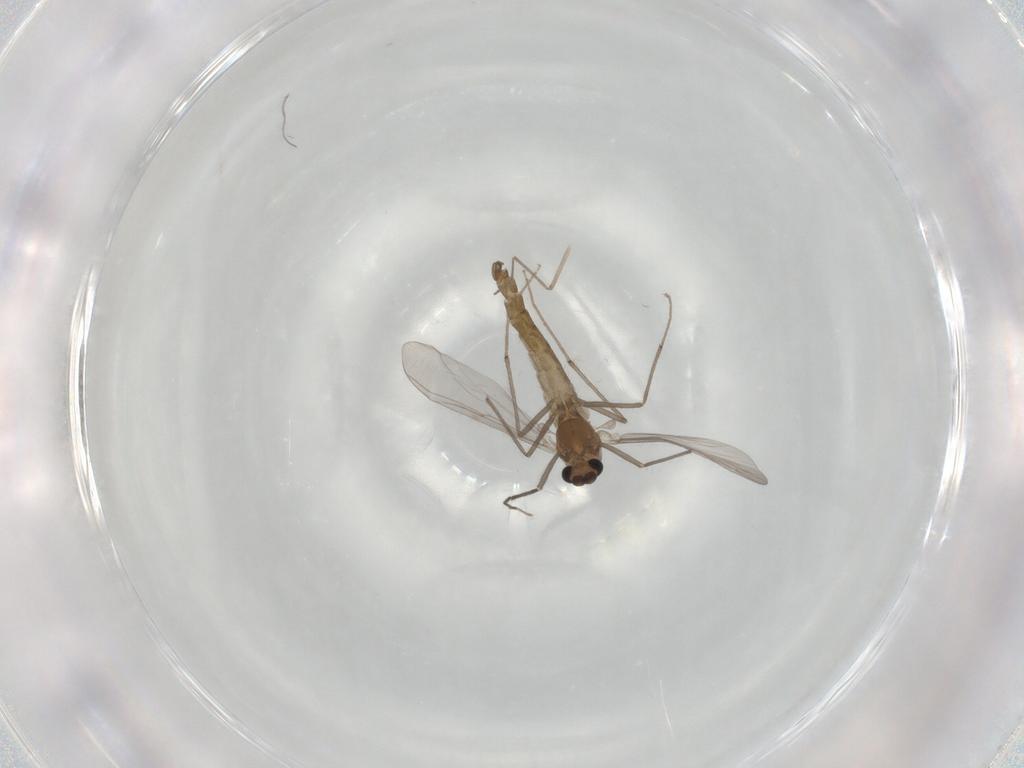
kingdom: Animalia
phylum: Arthropoda
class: Insecta
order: Diptera
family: Chironomidae
